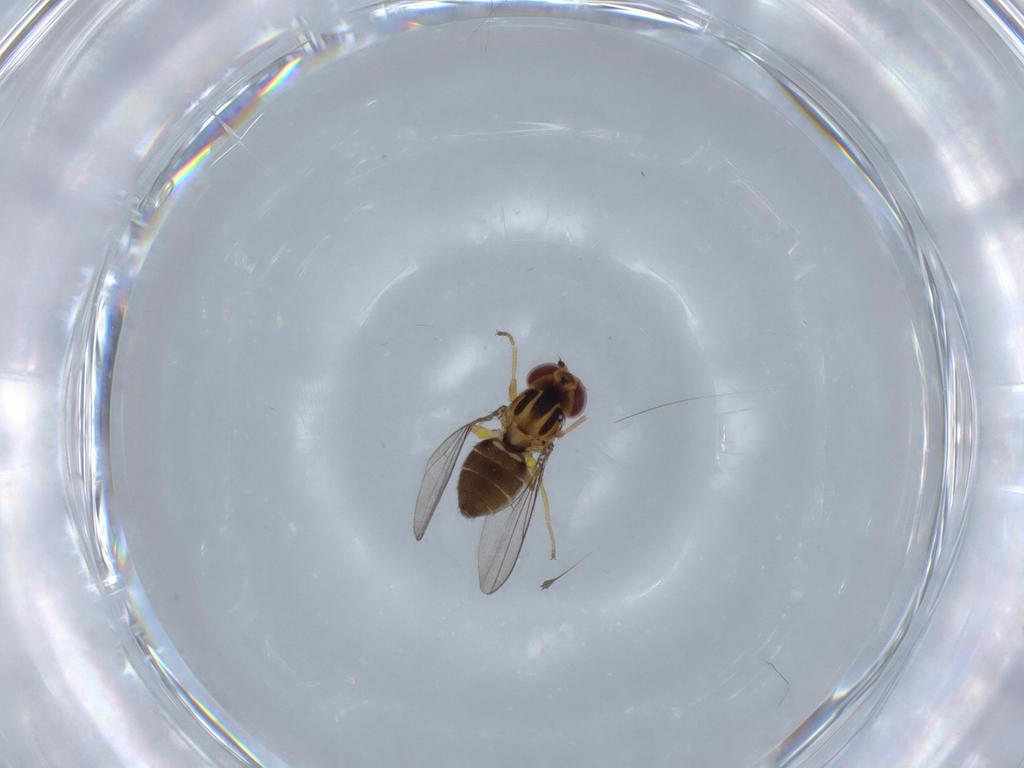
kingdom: Animalia
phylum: Arthropoda
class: Insecta
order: Diptera
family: Chloropidae
